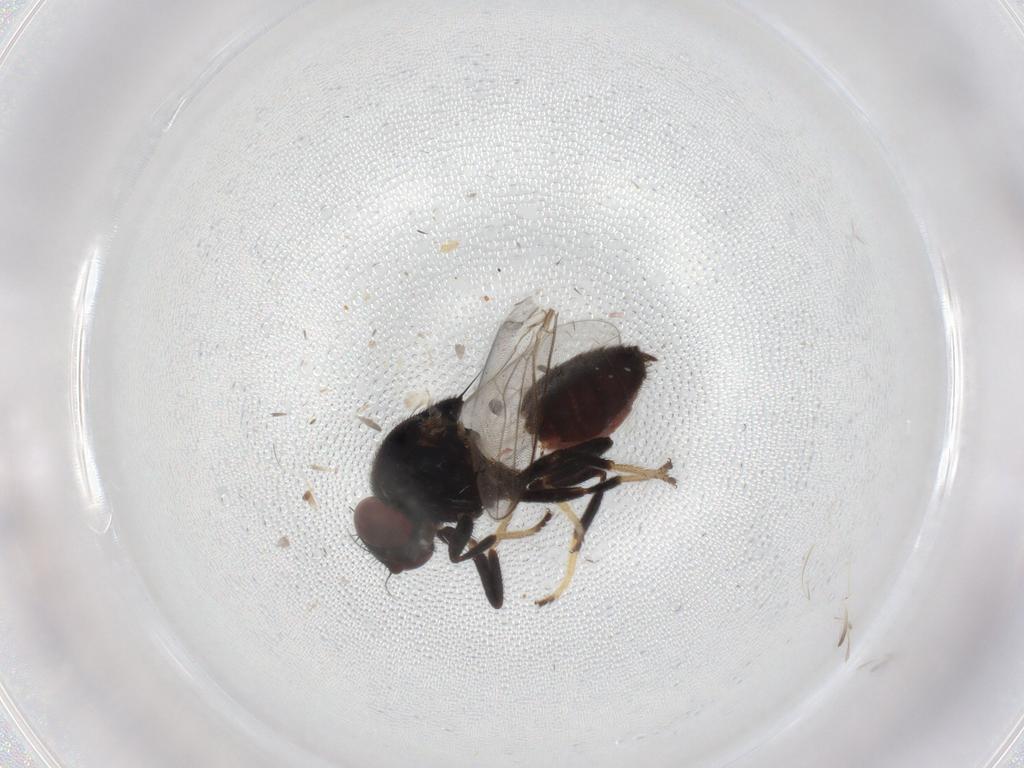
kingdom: Animalia
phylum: Arthropoda
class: Insecta
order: Diptera
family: Chloropidae
